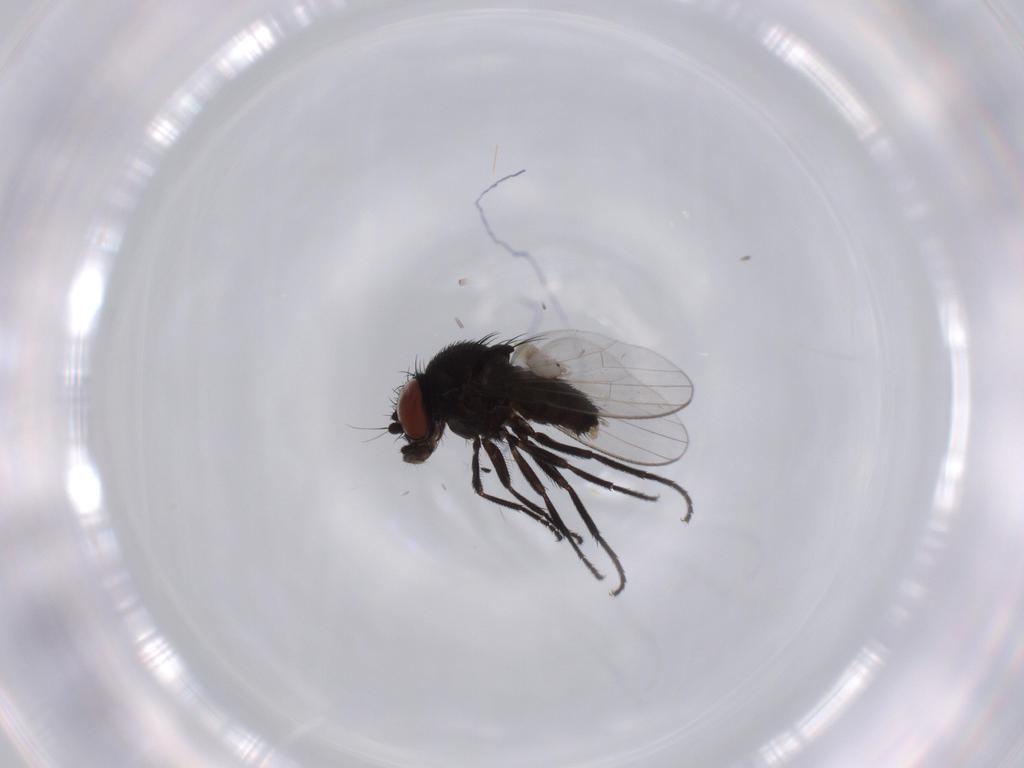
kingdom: Animalia
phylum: Arthropoda
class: Insecta
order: Diptera
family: Milichiidae
